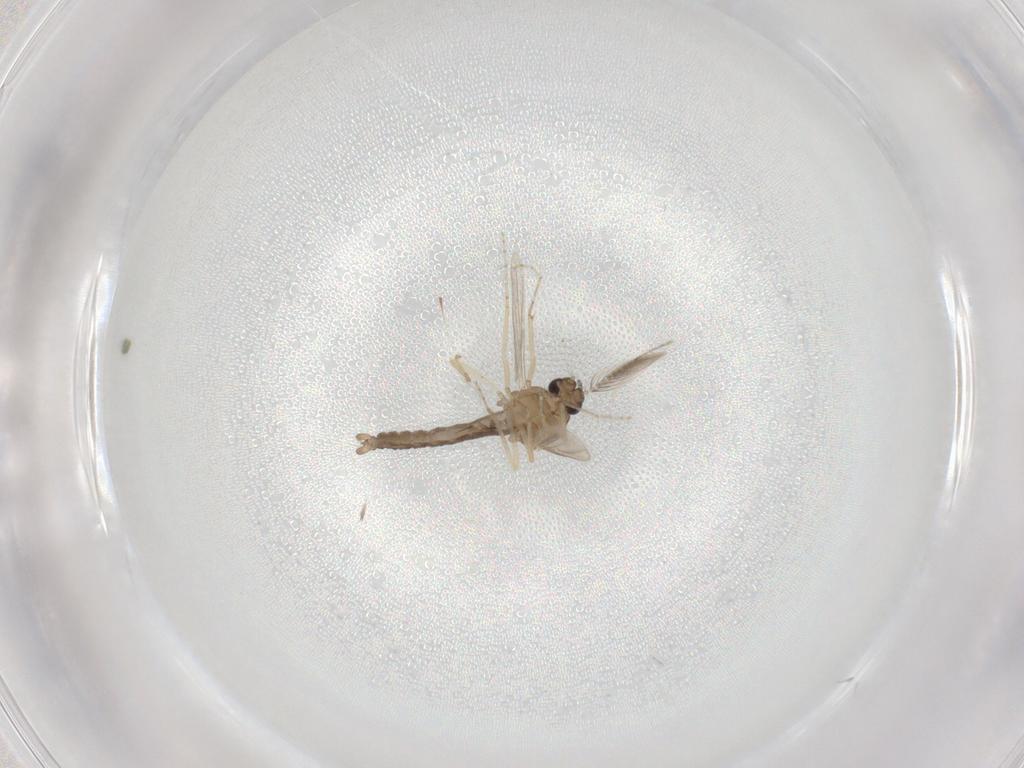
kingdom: Animalia
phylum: Arthropoda
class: Insecta
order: Diptera
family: Ceratopogonidae
